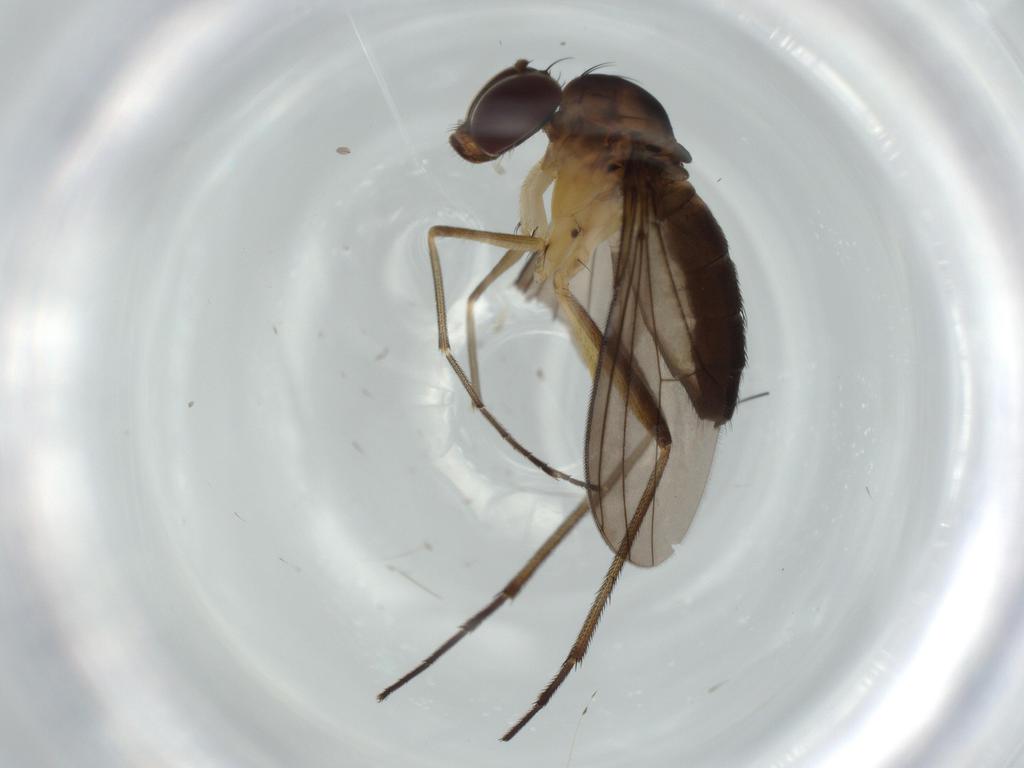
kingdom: Animalia
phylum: Arthropoda
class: Insecta
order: Diptera
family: Dolichopodidae
